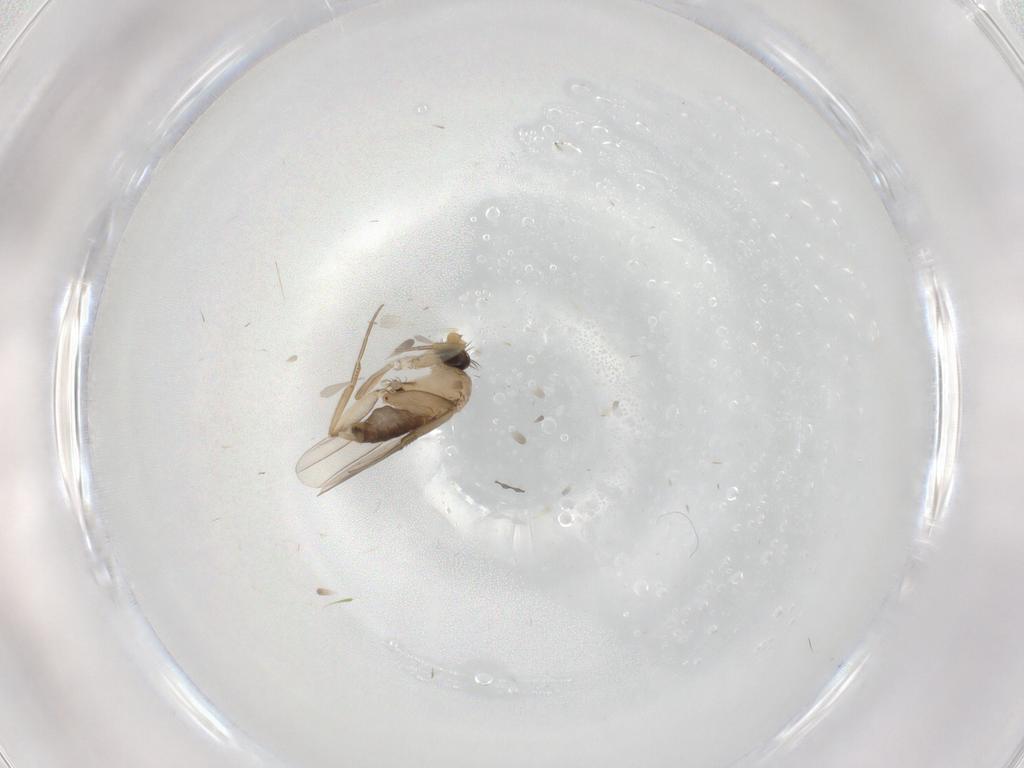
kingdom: Animalia
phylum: Arthropoda
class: Insecta
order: Diptera
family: Phoridae
